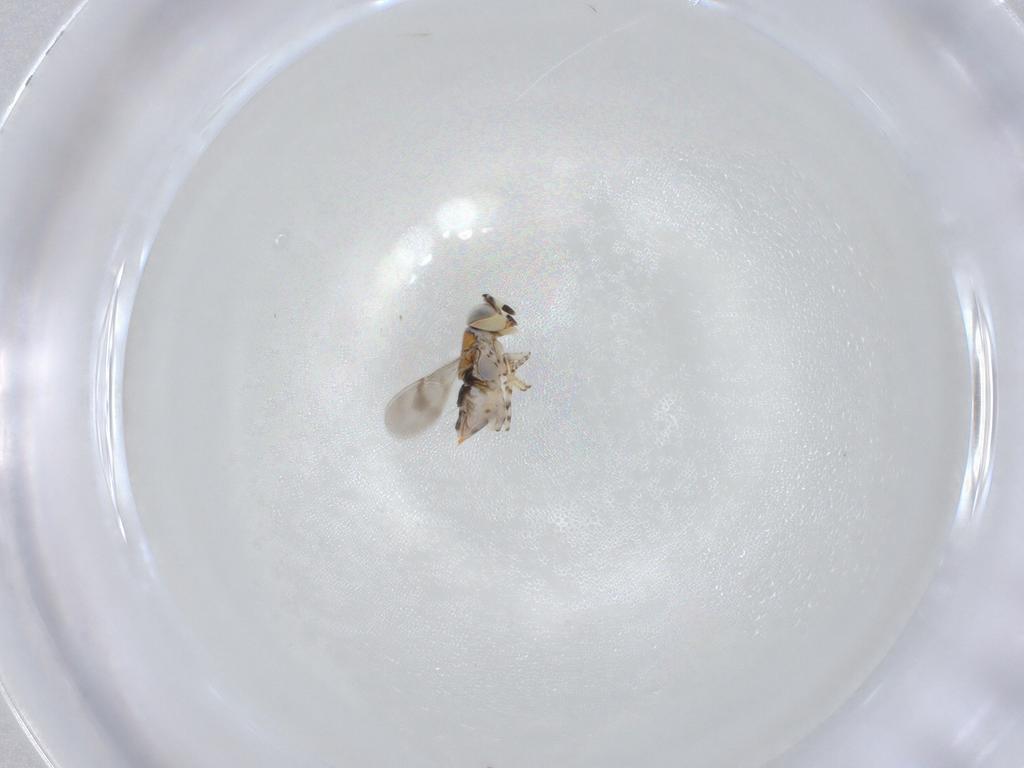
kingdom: Animalia
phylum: Arthropoda
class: Insecta
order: Hymenoptera
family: Encyrtidae
